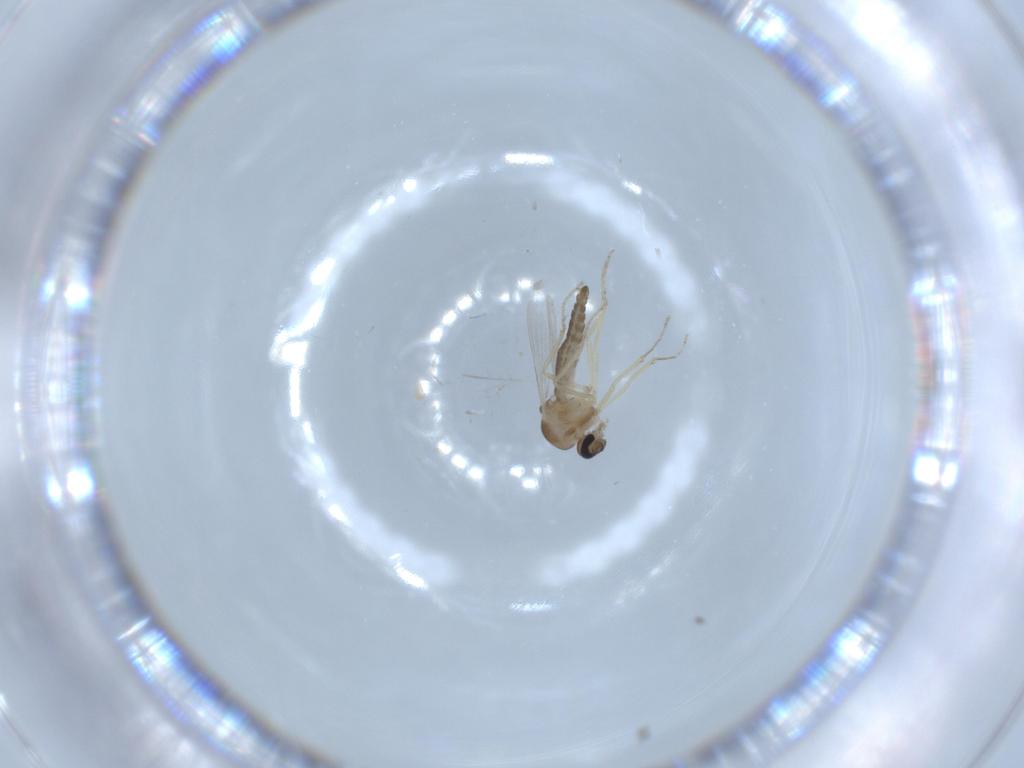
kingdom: Animalia
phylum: Arthropoda
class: Insecta
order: Diptera
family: Ceratopogonidae
